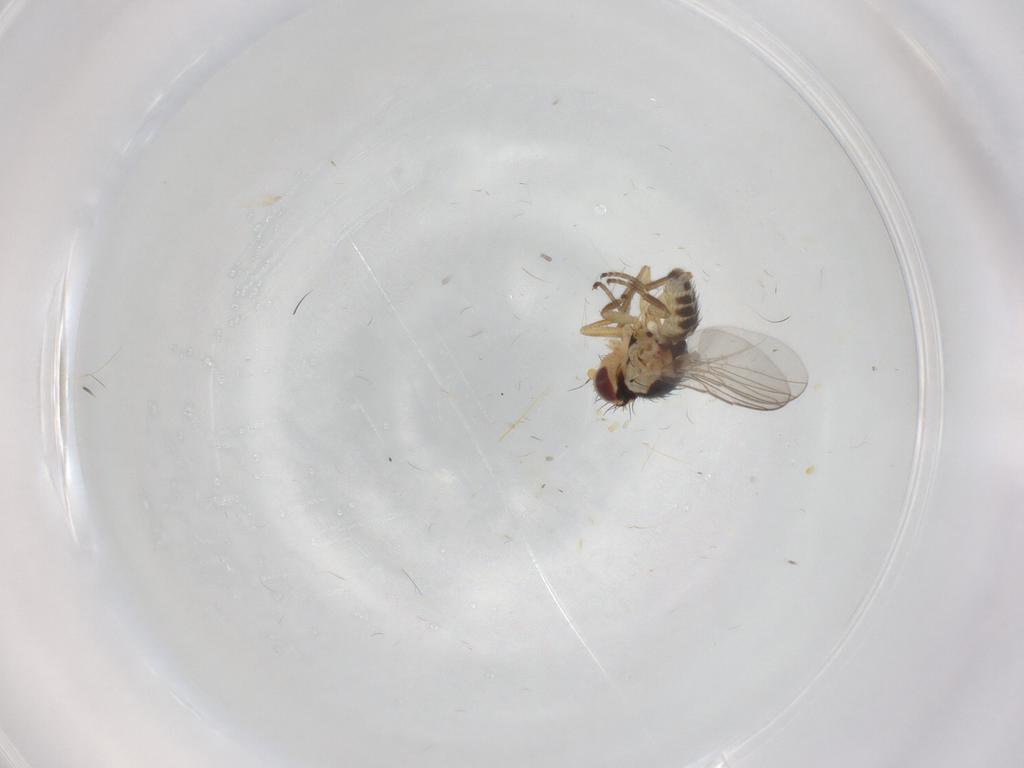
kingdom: Animalia
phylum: Arthropoda
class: Insecta
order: Diptera
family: Agromyzidae
